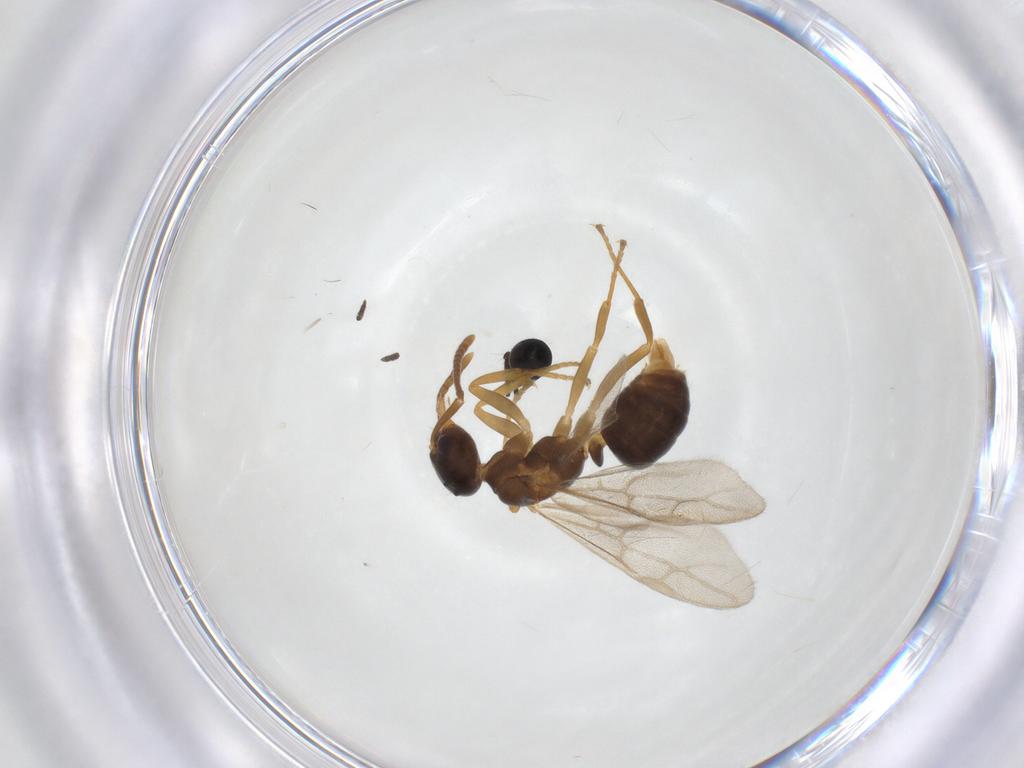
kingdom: Animalia
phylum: Arthropoda
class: Insecta
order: Hymenoptera
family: Formicidae
